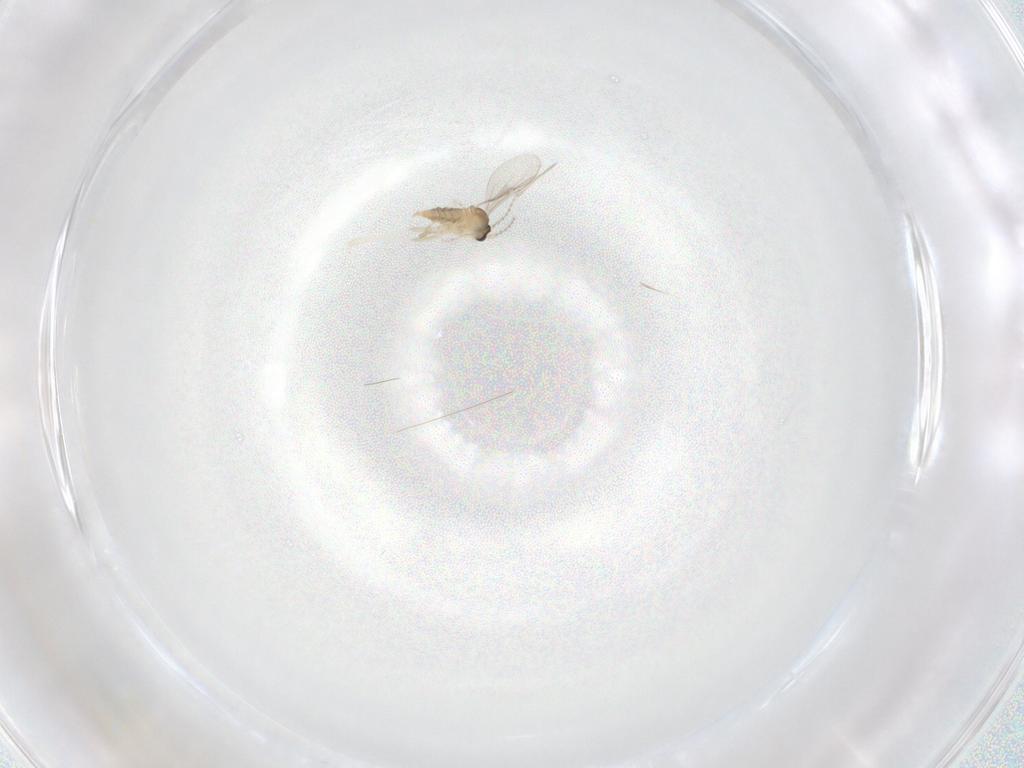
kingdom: Animalia
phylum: Arthropoda
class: Insecta
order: Diptera
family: Cecidomyiidae
